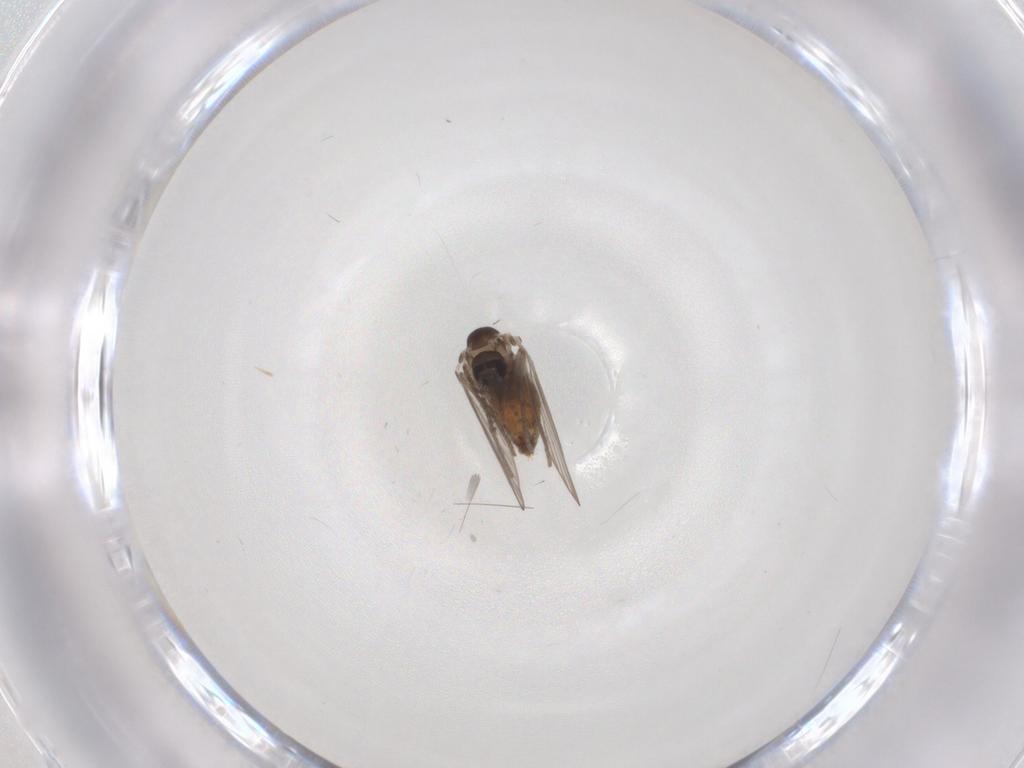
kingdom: Animalia
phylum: Arthropoda
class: Insecta
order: Diptera
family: Psychodidae
